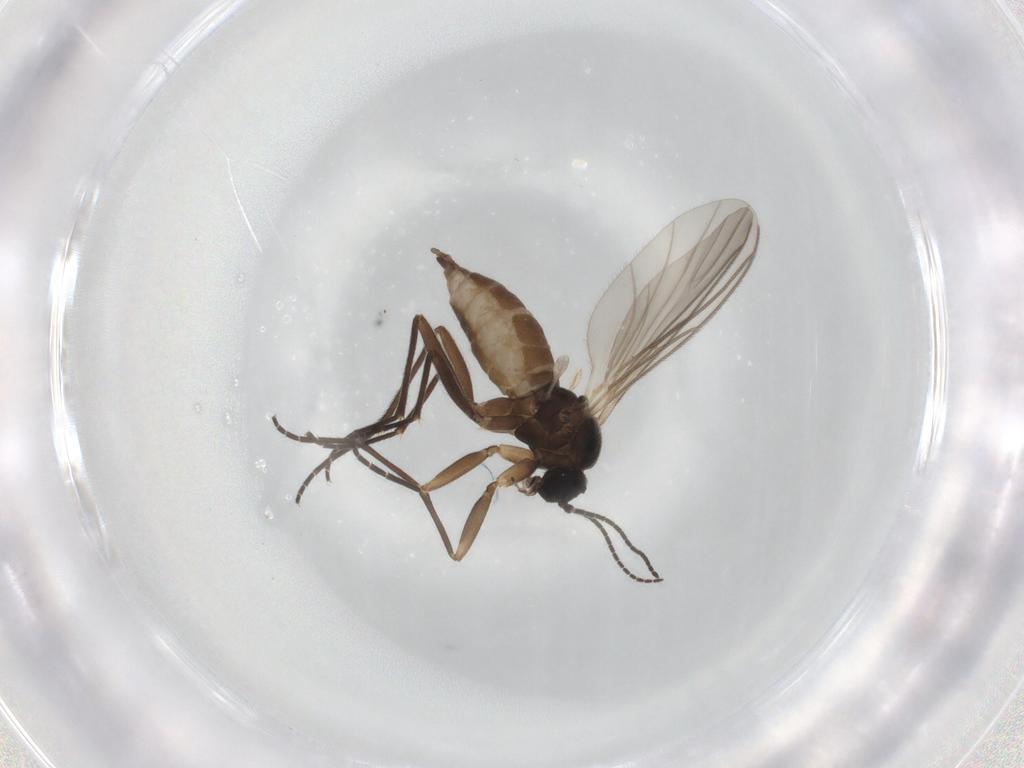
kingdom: Animalia
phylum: Arthropoda
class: Insecta
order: Diptera
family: Sciaridae
